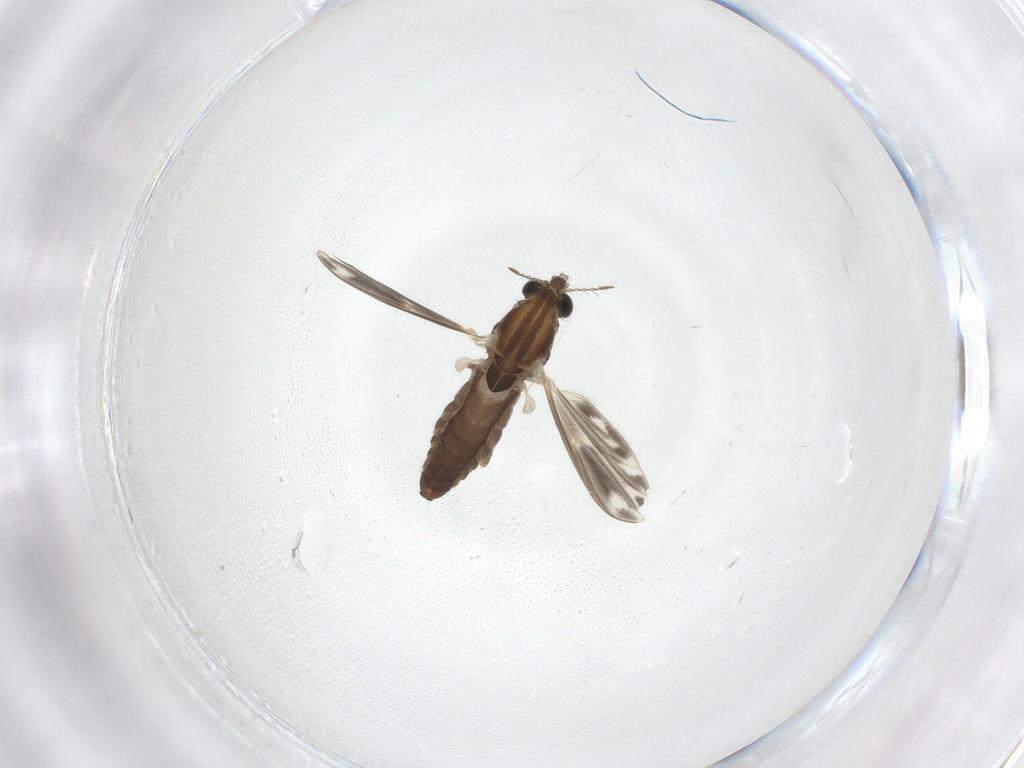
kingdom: Animalia
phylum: Arthropoda
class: Insecta
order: Diptera
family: Chironomidae
